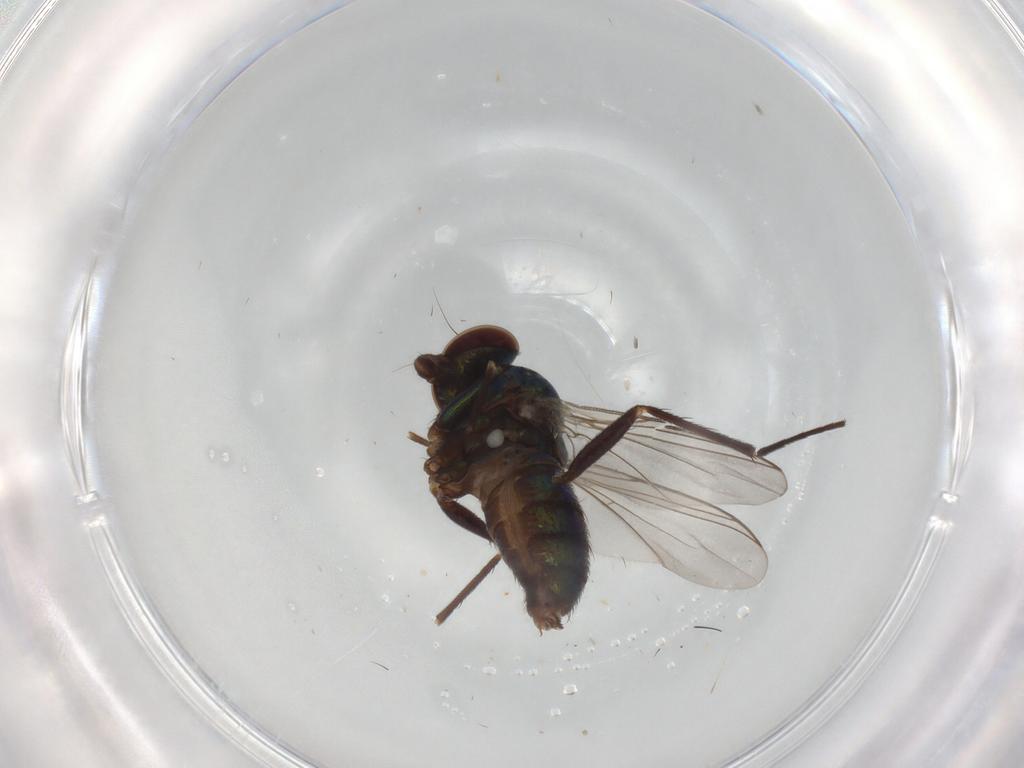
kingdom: Animalia
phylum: Arthropoda
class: Insecta
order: Diptera
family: Dolichopodidae
